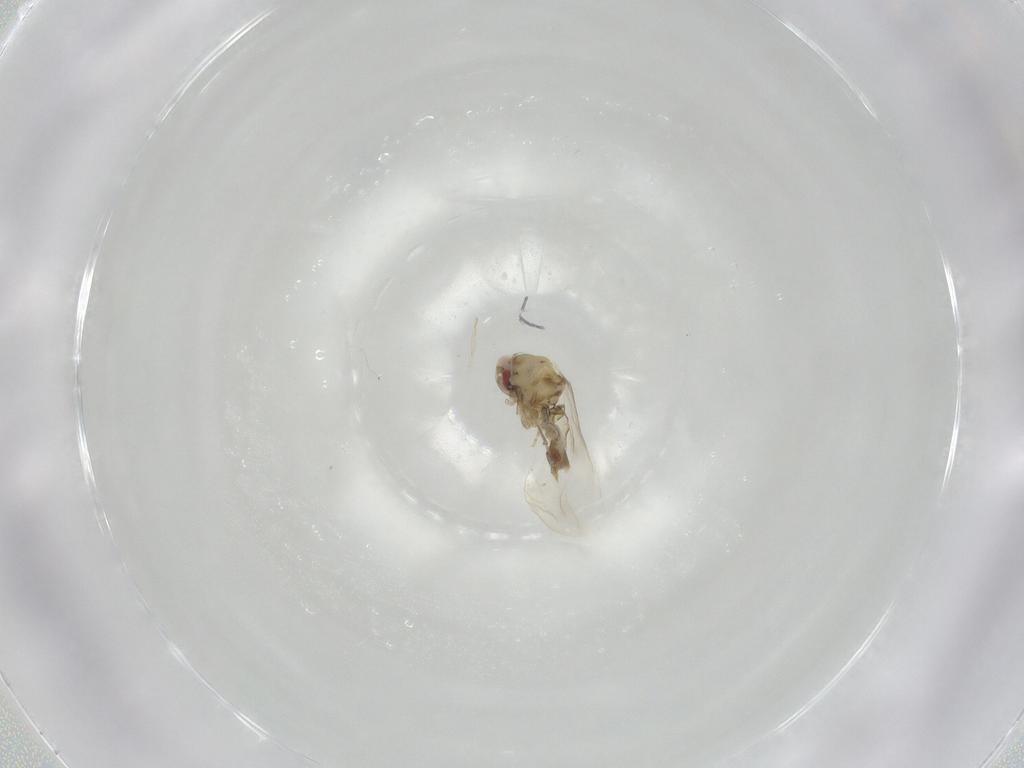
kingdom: Animalia
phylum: Arthropoda
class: Insecta
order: Hemiptera
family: Aleyrodidae
